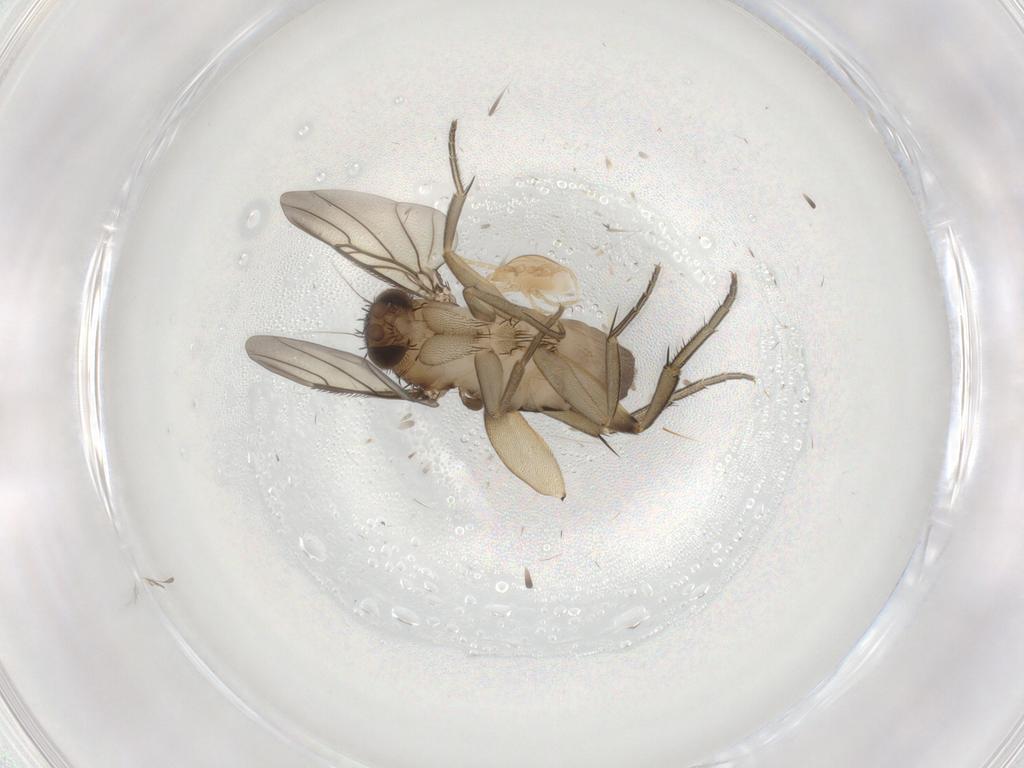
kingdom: Animalia
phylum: Arthropoda
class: Insecta
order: Diptera
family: Phoridae
